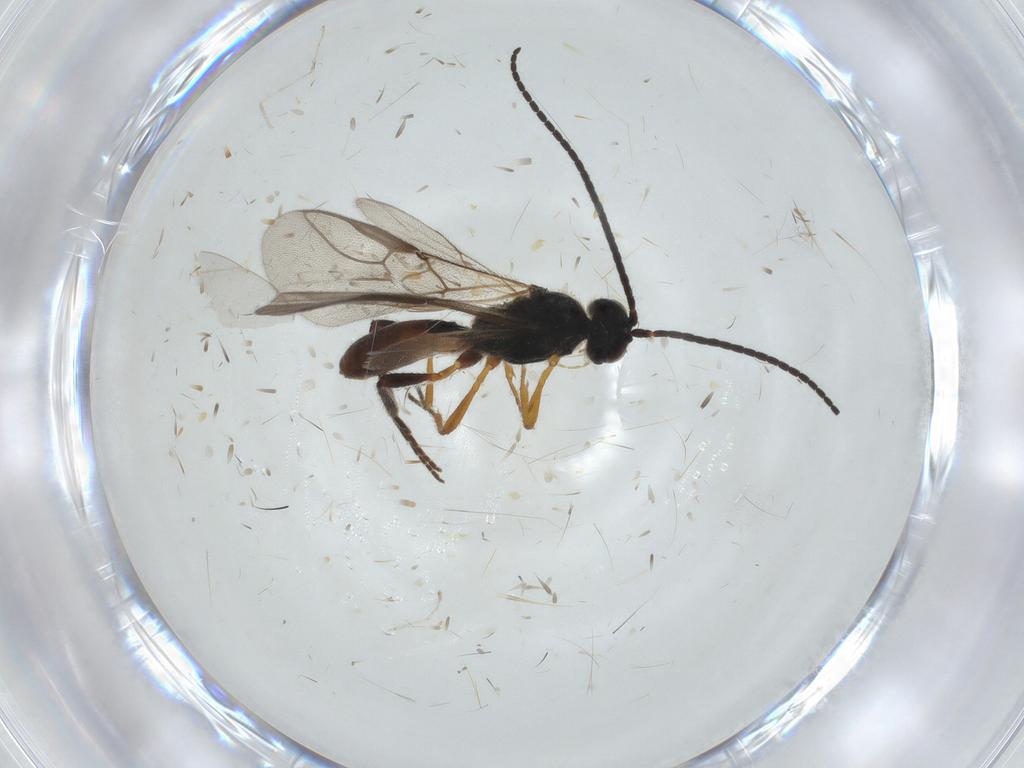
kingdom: Animalia
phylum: Arthropoda
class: Insecta
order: Hymenoptera
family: Braconidae
